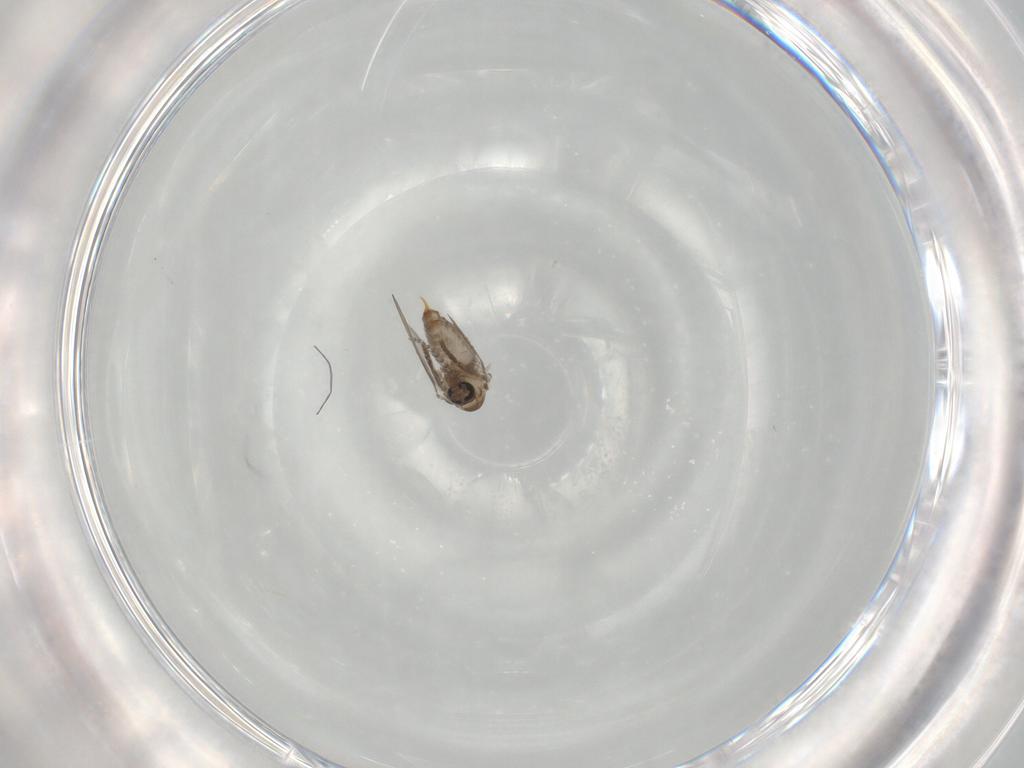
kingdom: Animalia
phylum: Arthropoda
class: Insecta
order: Diptera
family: Psychodidae
